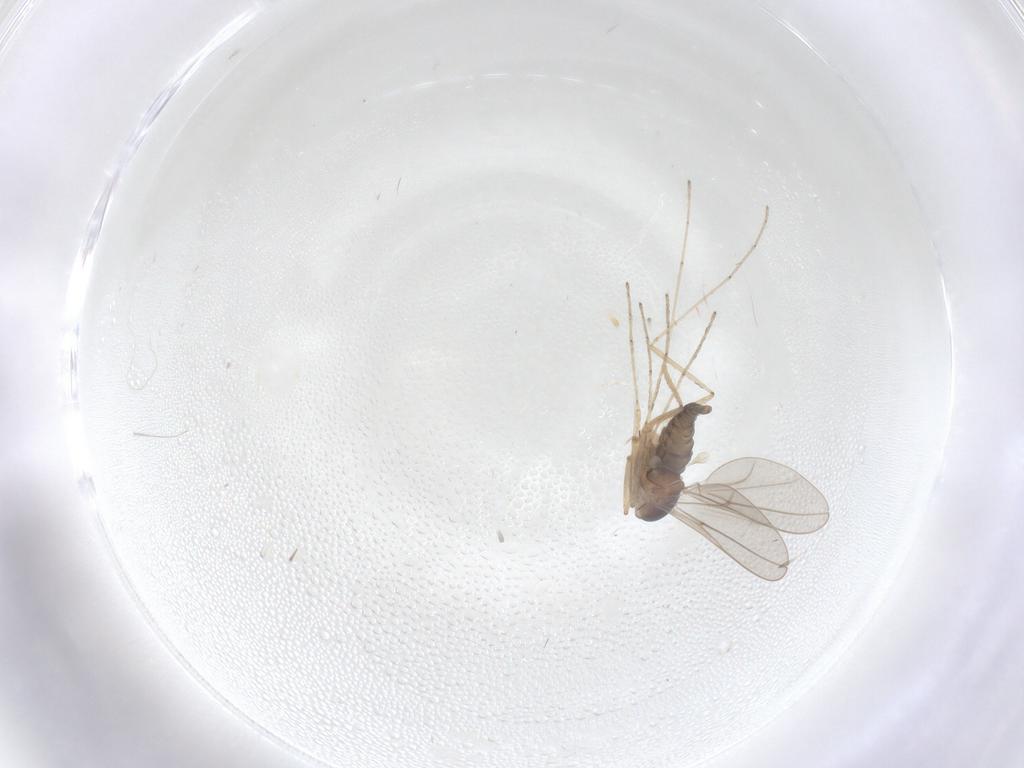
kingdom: Animalia
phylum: Arthropoda
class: Insecta
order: Diptera
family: Cecidomyiidae
